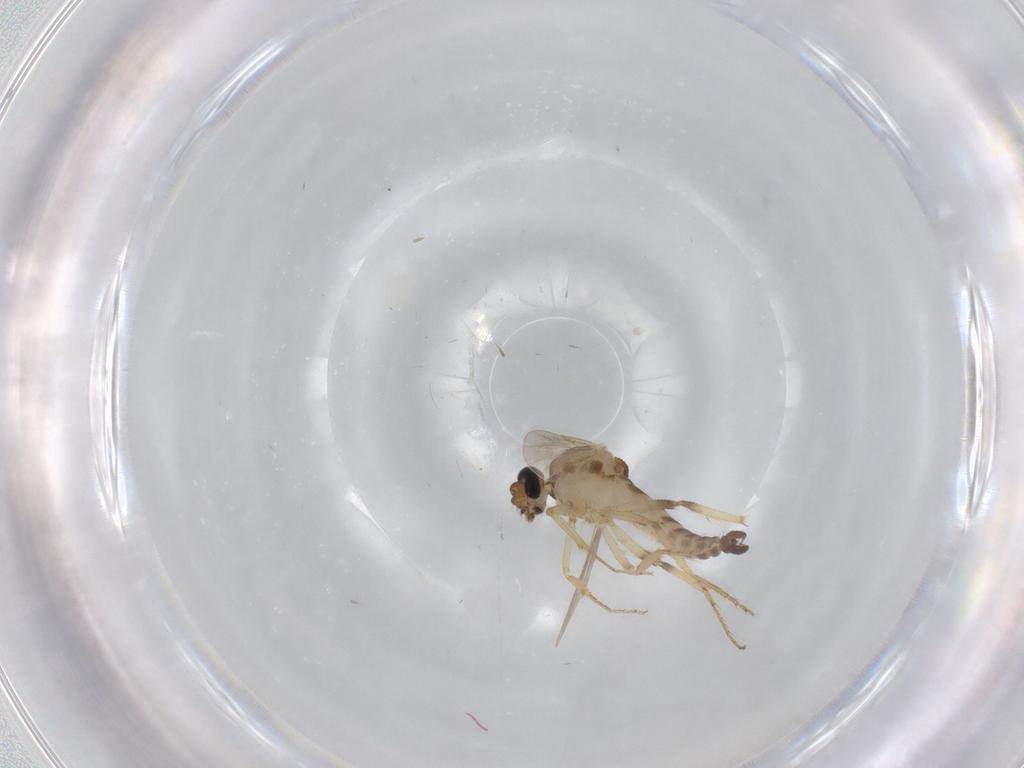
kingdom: Animalia
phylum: Arthropoda
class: Insecta
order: Diptera
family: Ceratopogonidae
